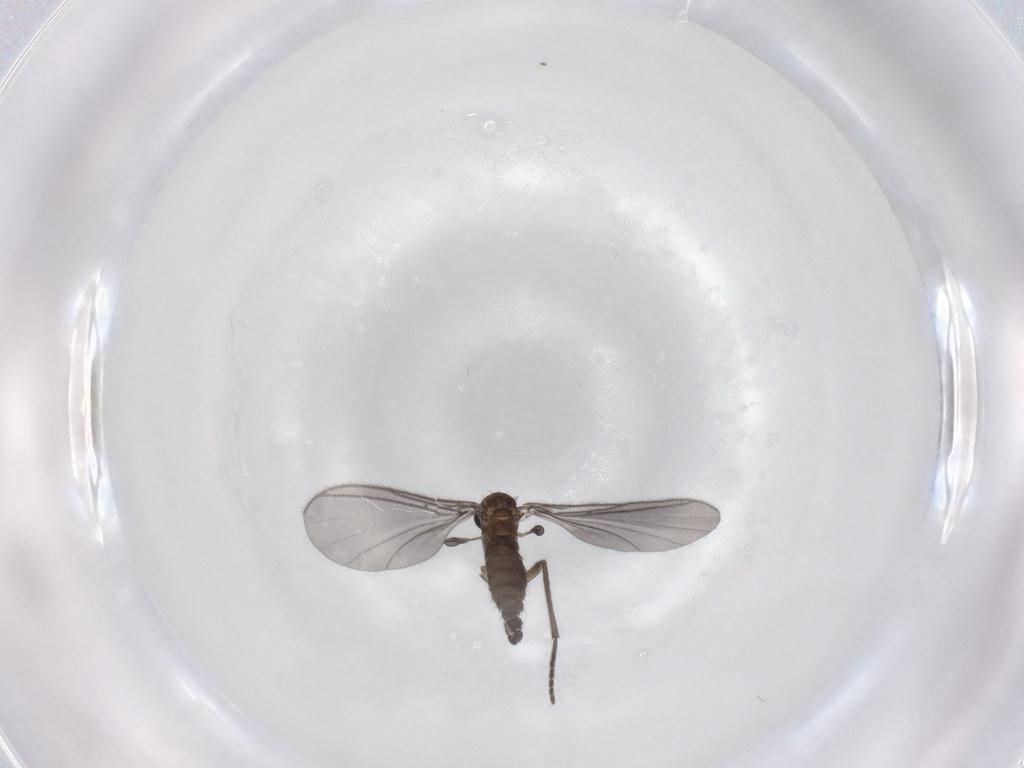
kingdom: Animalia
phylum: Arthropoda
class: Insecta
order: Diptera
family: Sciaridae
